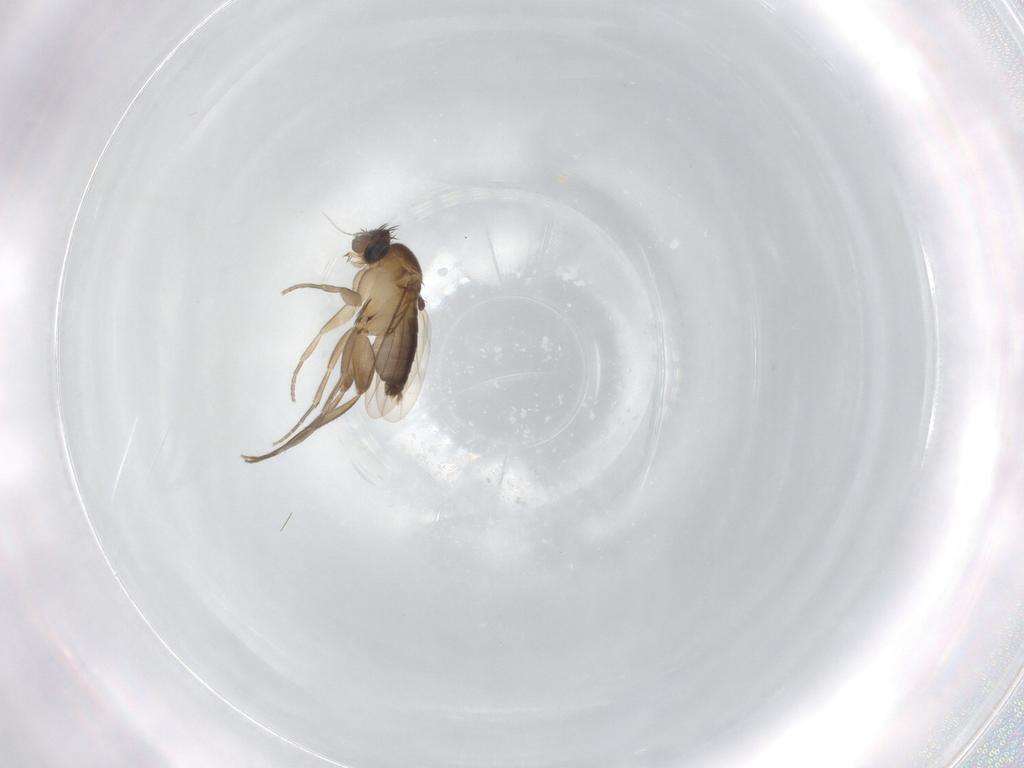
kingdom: Animalia
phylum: Arthropoda
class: Insecta
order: Diptera
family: Phoridae
